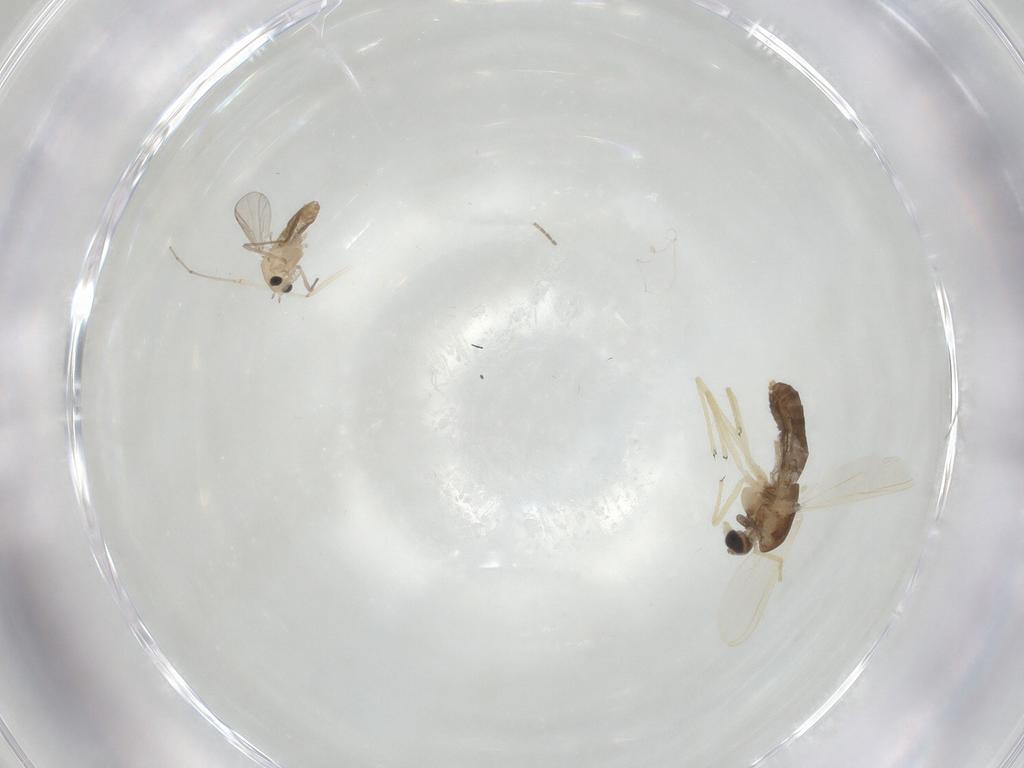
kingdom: Animalia
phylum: Arthropoda
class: Insecta
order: Diptera
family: Chironomidae
